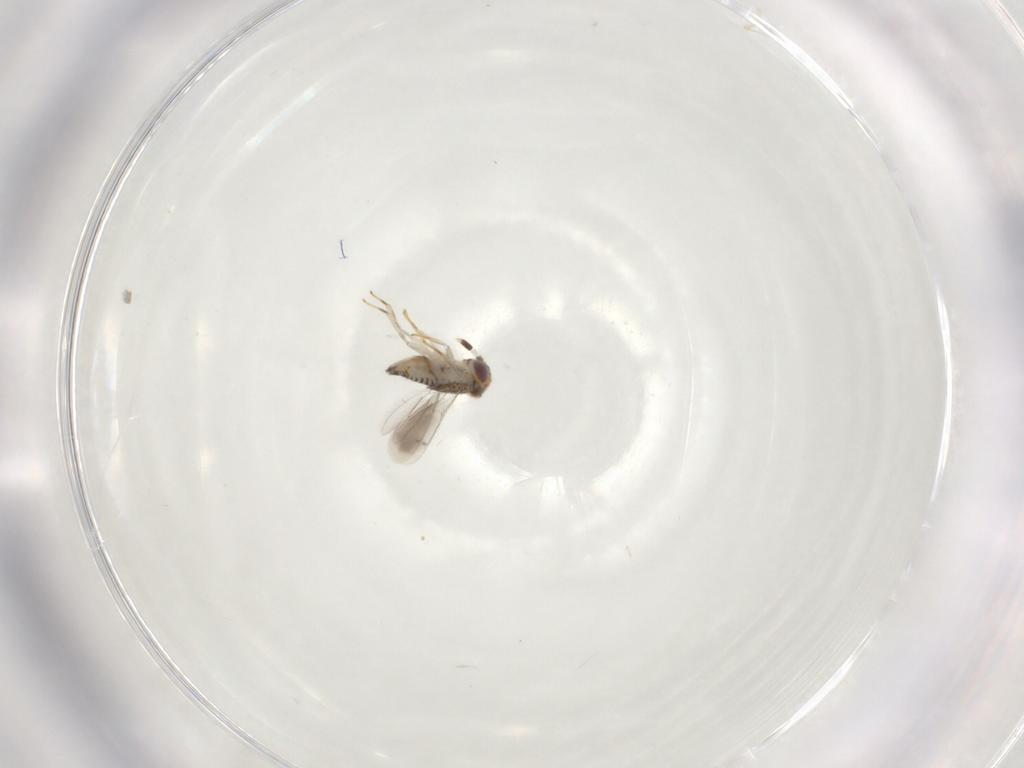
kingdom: Animalia
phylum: Arthropoda
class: Insecta
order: Hymenoptera
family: Aphelinidae
